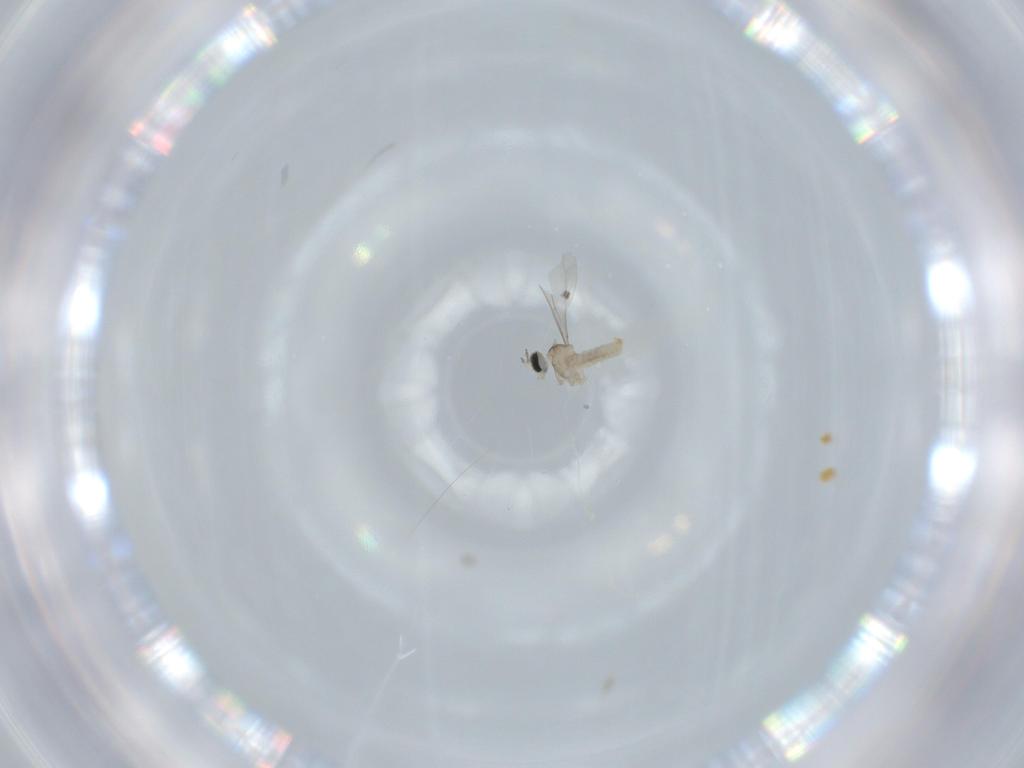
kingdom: Animalia
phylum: Arthropoda
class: Insecta
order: Diptera
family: Cecidomyiidae
